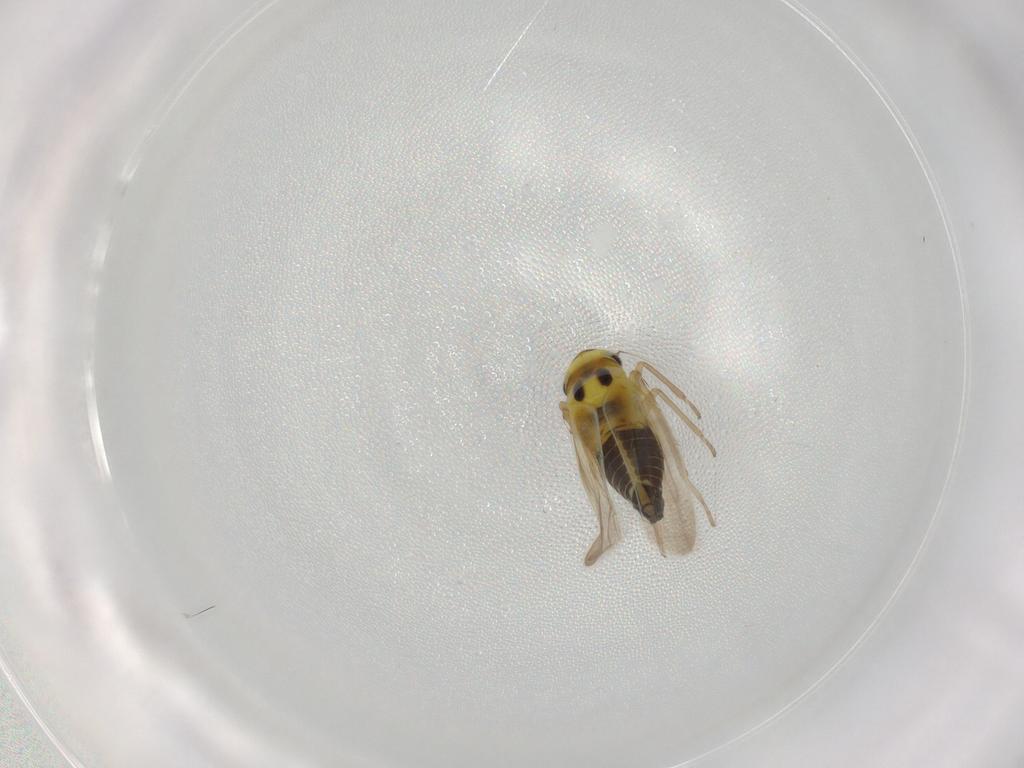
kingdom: Animalia
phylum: Arthropoda
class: Insecta
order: Hemiptera
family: Cicadellidae
